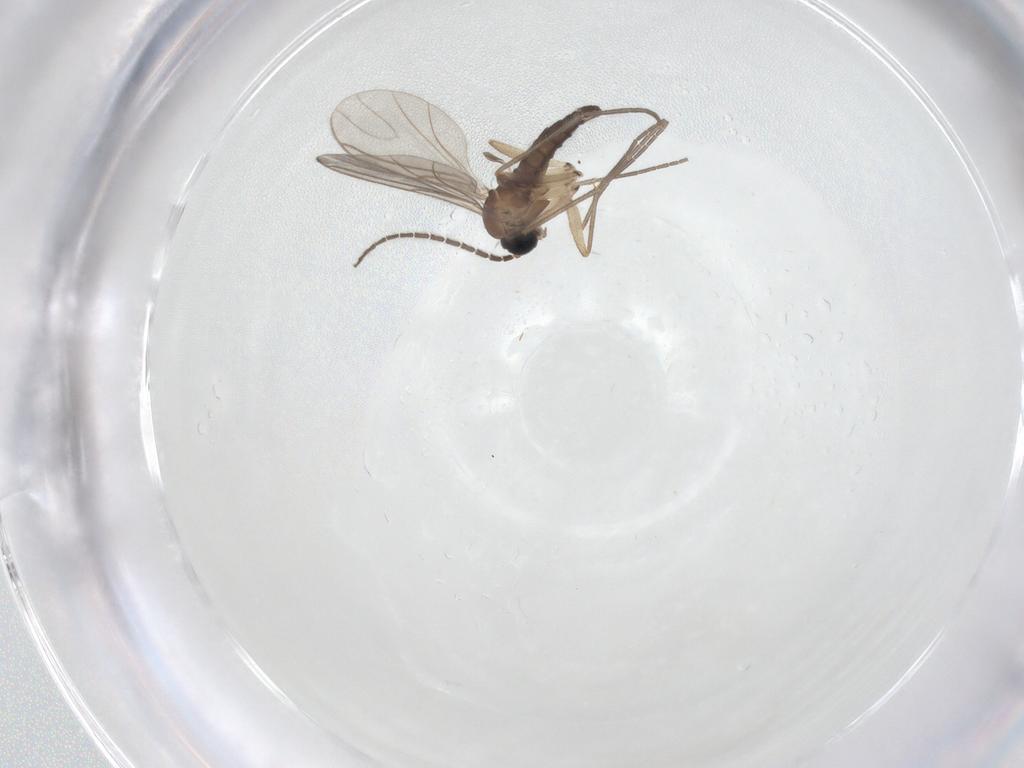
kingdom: Animalia
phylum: Arthropoda
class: Insecta
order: Diptera
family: Sciaridae
